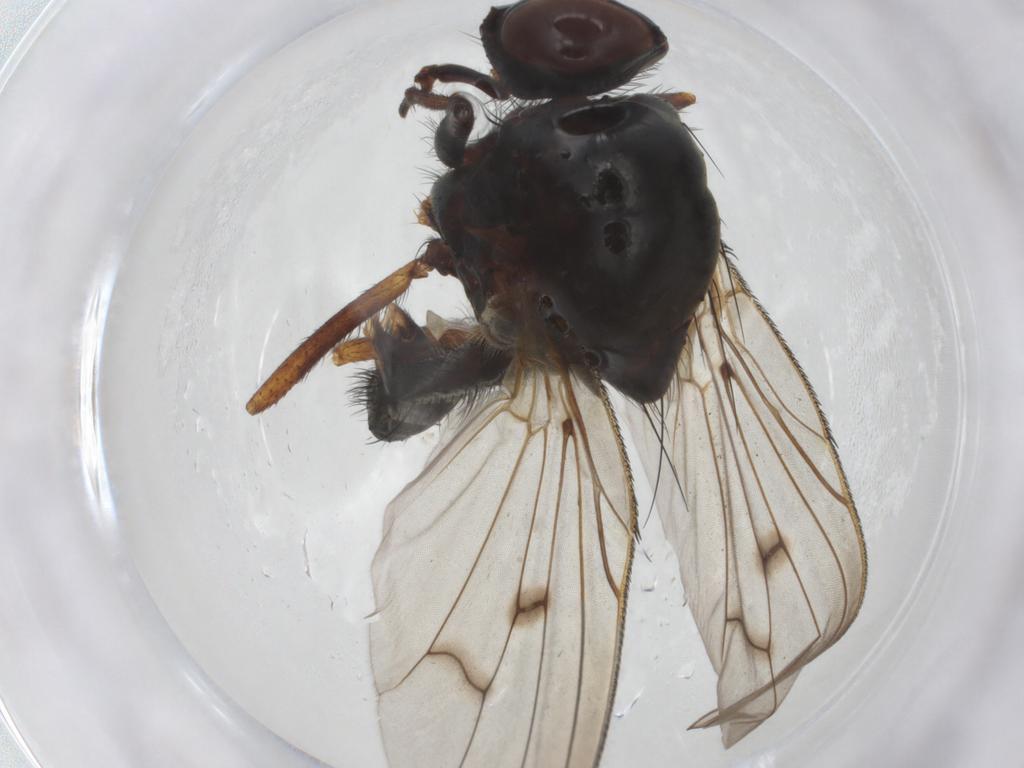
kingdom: Animalia
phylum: Arthropoda
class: Insecta
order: Diptera
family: Anthomyiidae
